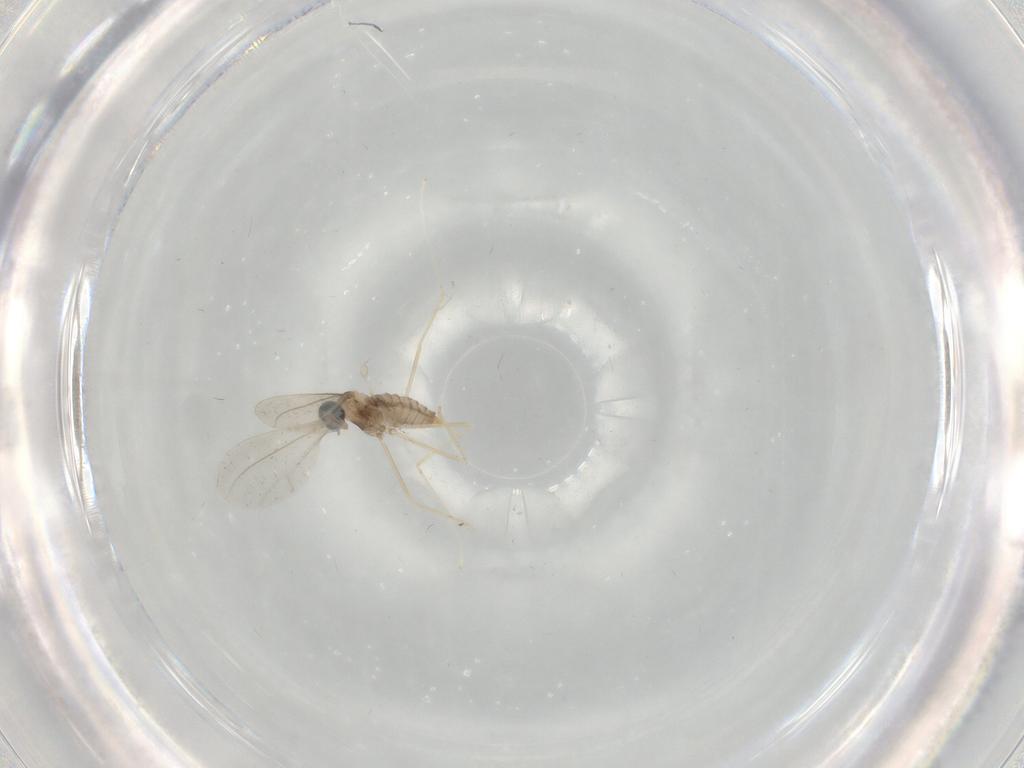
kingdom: Animalia
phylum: Arthropoda
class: Insecta
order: Diptera
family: Cecidomyiidae
